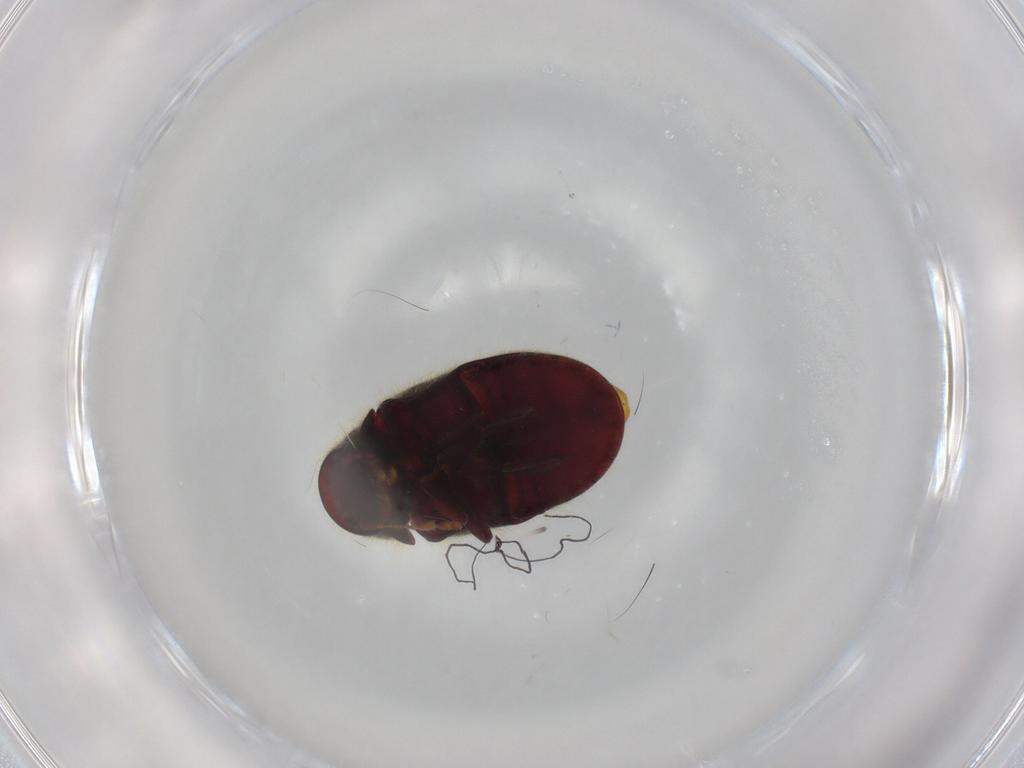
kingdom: Animalia
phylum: Arthropoda
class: Insecta
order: Coleoptera
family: Ptinidae
